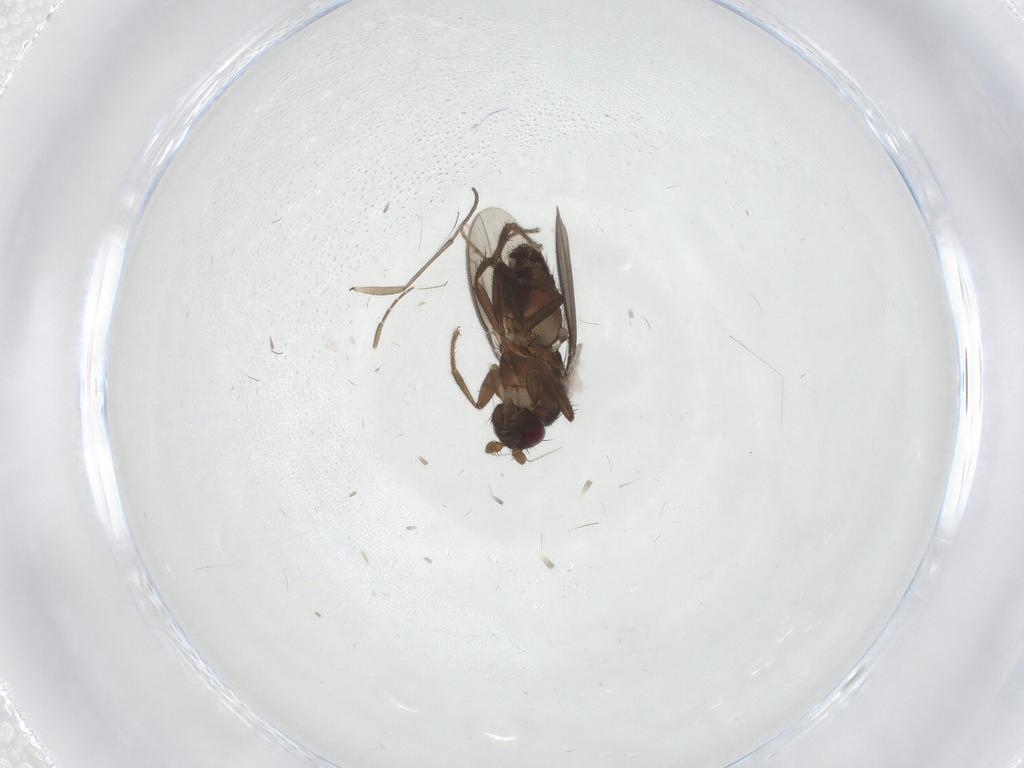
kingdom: Animalia
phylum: Arthropoda
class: Insecta
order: Diptera
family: Sciaridae
